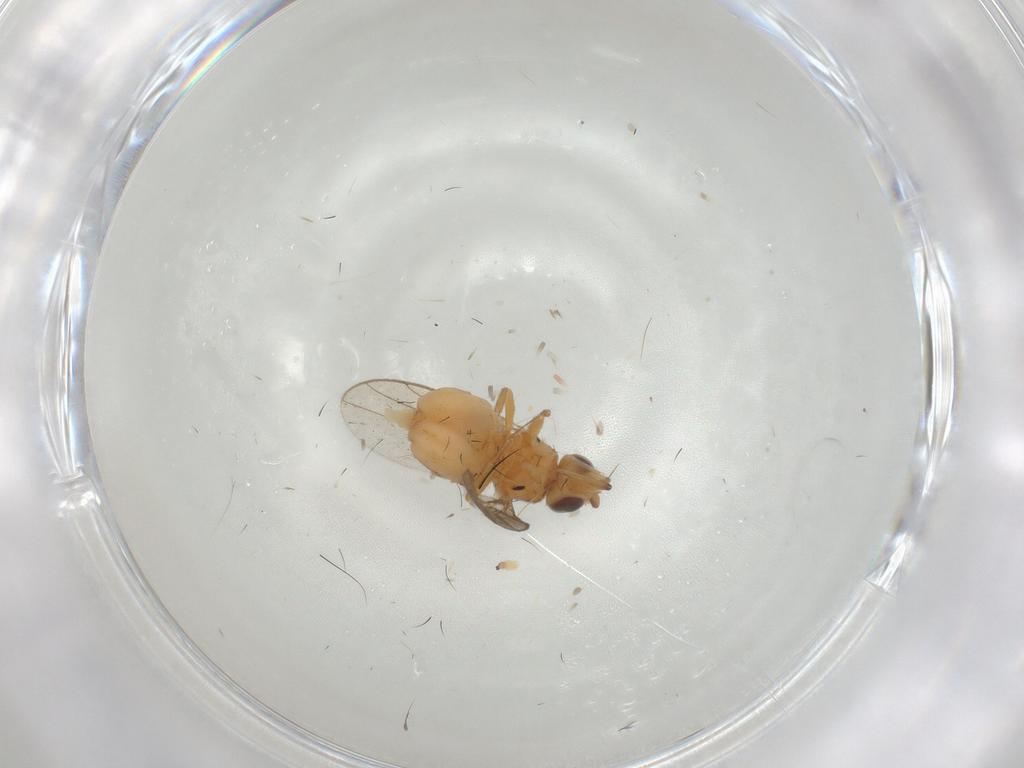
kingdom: Animalia
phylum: Arthropoda
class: Insecta
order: Diptera
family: Chloropidae
